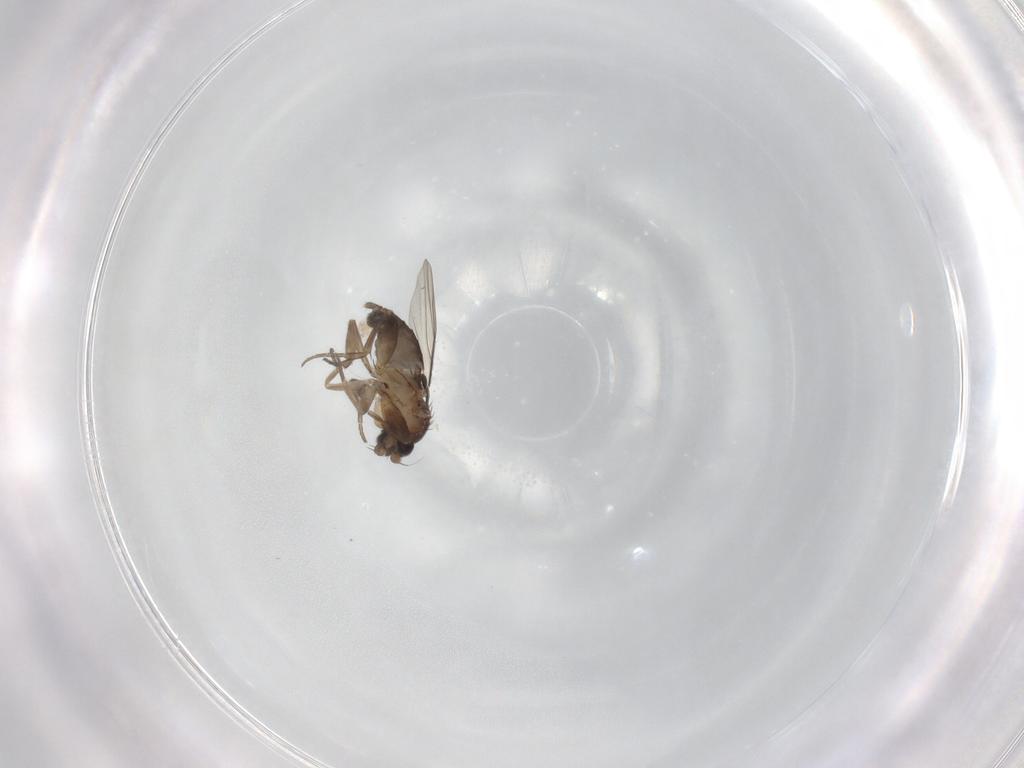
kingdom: Animalia
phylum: Arthropoda
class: Insecta
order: Diptera
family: Phoridae
